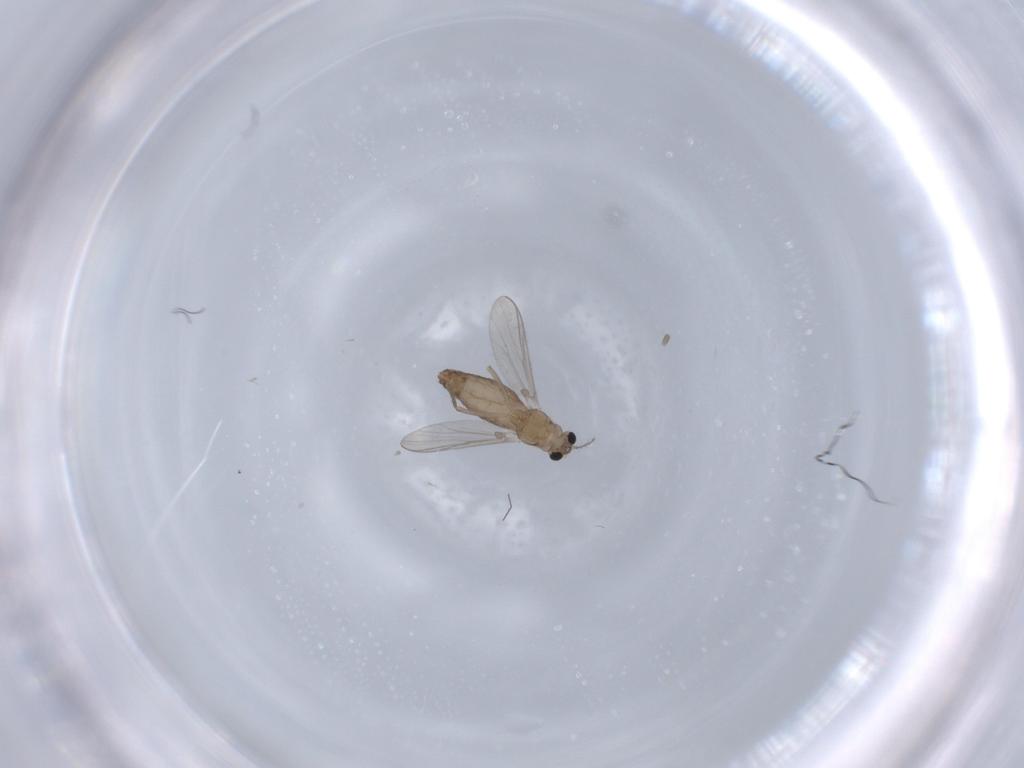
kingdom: Animalia
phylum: Arthropoda
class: Insecta
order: Diptera
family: Chironomidae
